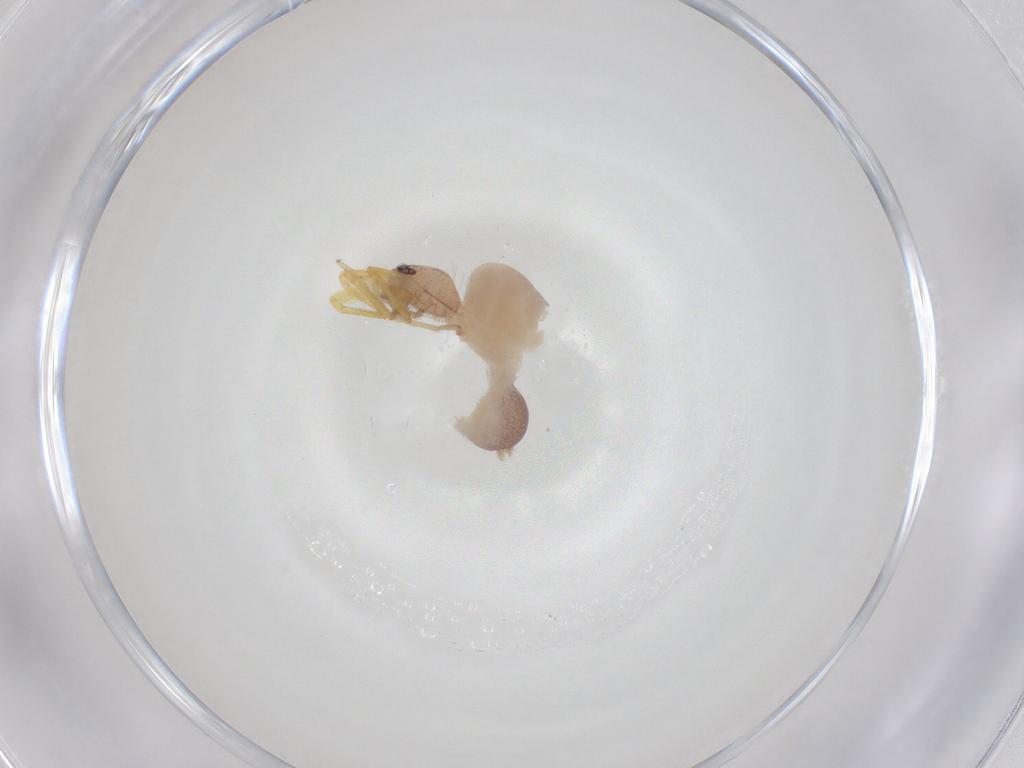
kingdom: Animalia
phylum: Arthropoda
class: Arachnida
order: Araneae
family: Idiopidae
